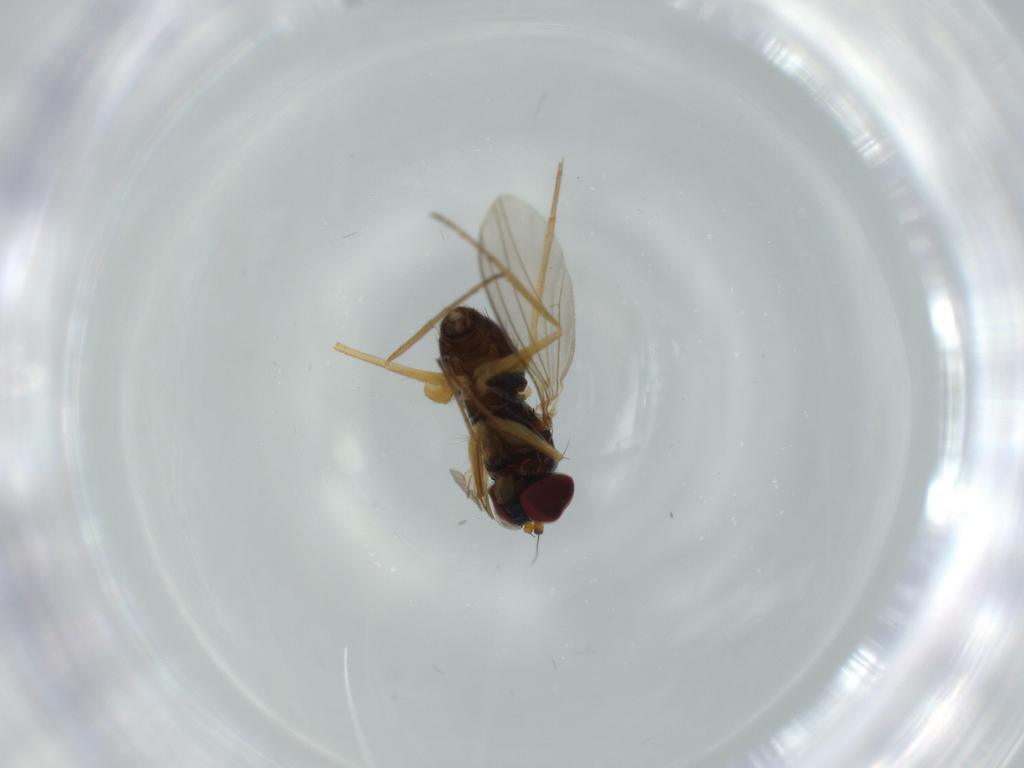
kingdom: Animalia
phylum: Arthropoda
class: Insecta
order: Diptera
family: Dolichopodidae
